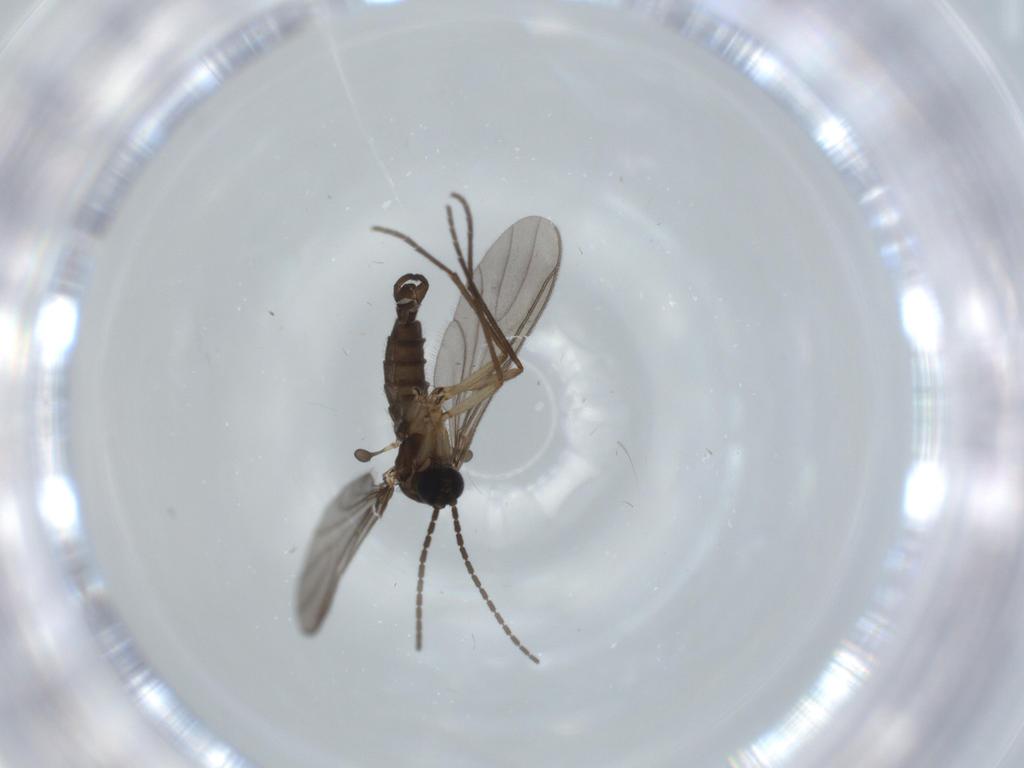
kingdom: Animalia
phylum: Arthropoda
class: Insecta
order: Diptera
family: Sciaridae
